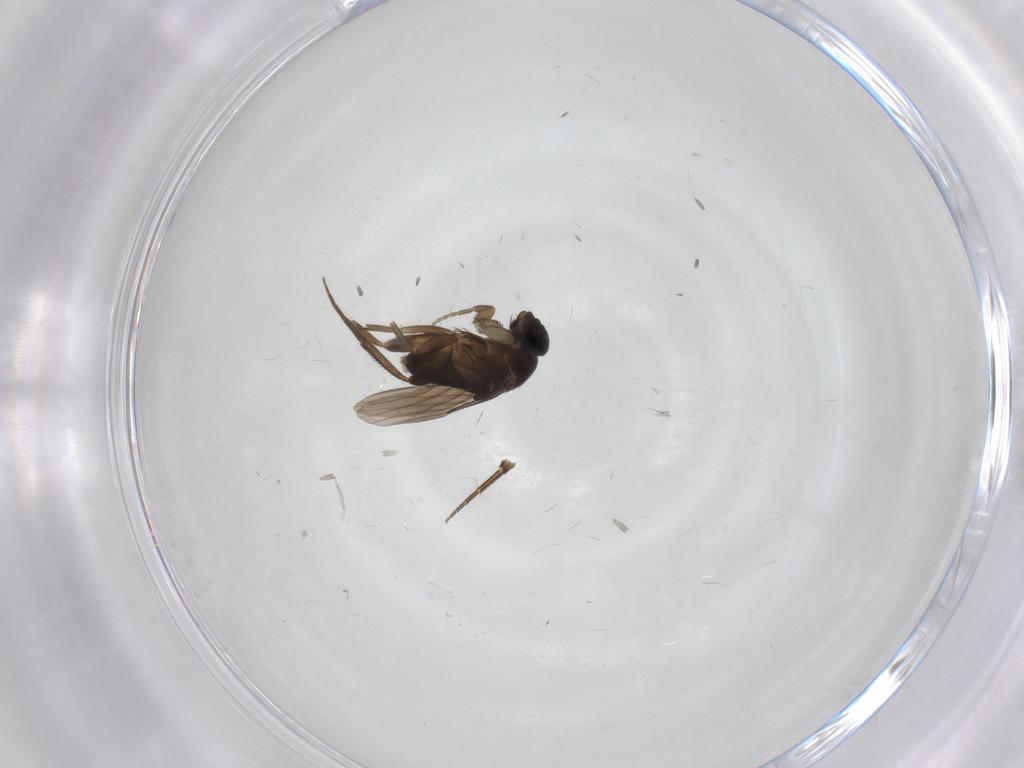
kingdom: Animalia
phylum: Arthropoda
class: Insecta
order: Diptera
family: Phoridae
